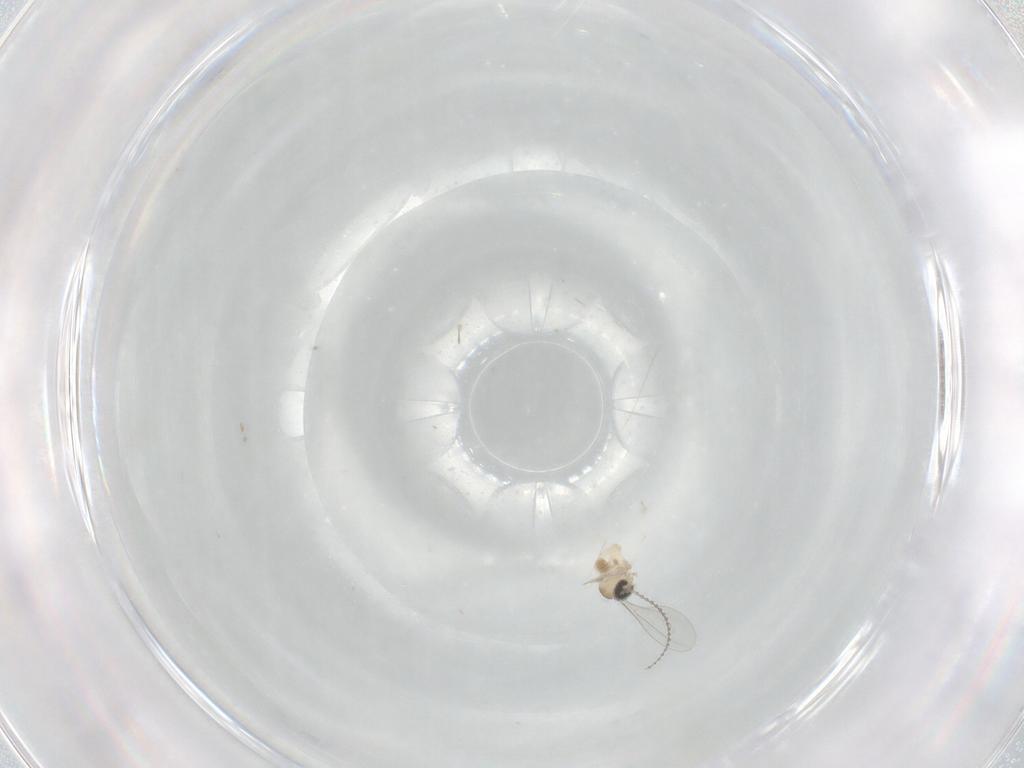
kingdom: Animalia
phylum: Arthropoda
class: Insecta
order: Diptera
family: Cecidomyiidae
